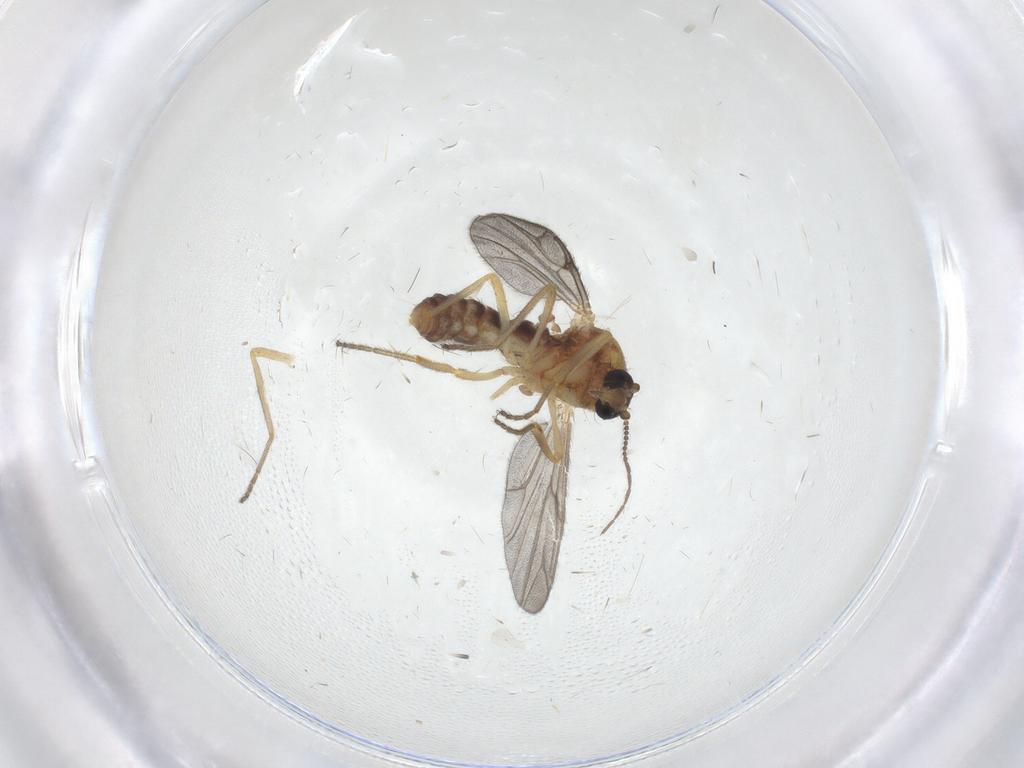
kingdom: Animalia
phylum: Arthropoda
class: Insecta
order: Diptera
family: Ceratopogonidae
